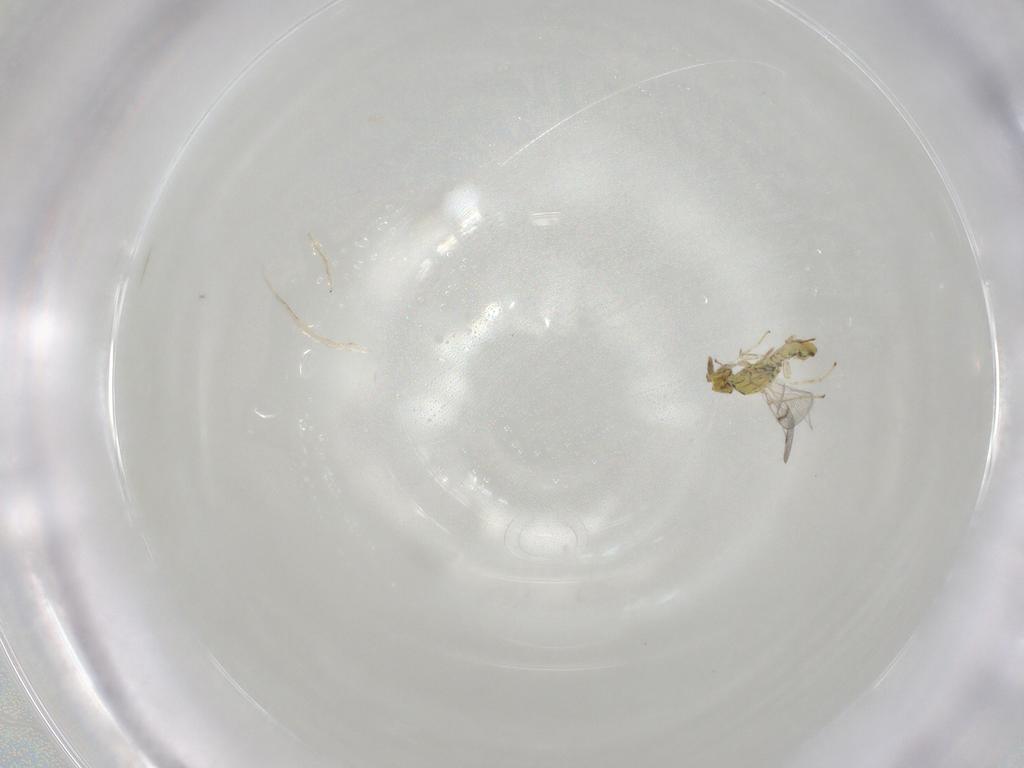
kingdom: Animalia
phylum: Arthropoda
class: Insecta
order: Hymenoptera
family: Eulophidae
